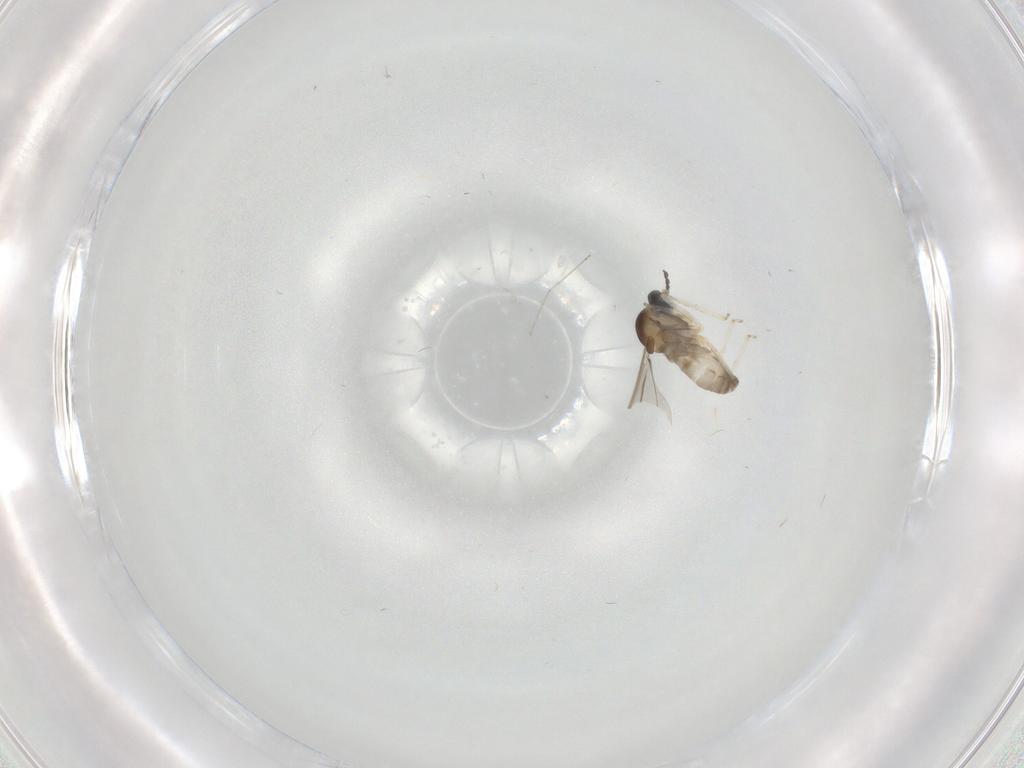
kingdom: Animalia
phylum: Arthropoda
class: Insecta
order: Diptera
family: Cecidomyiidae
